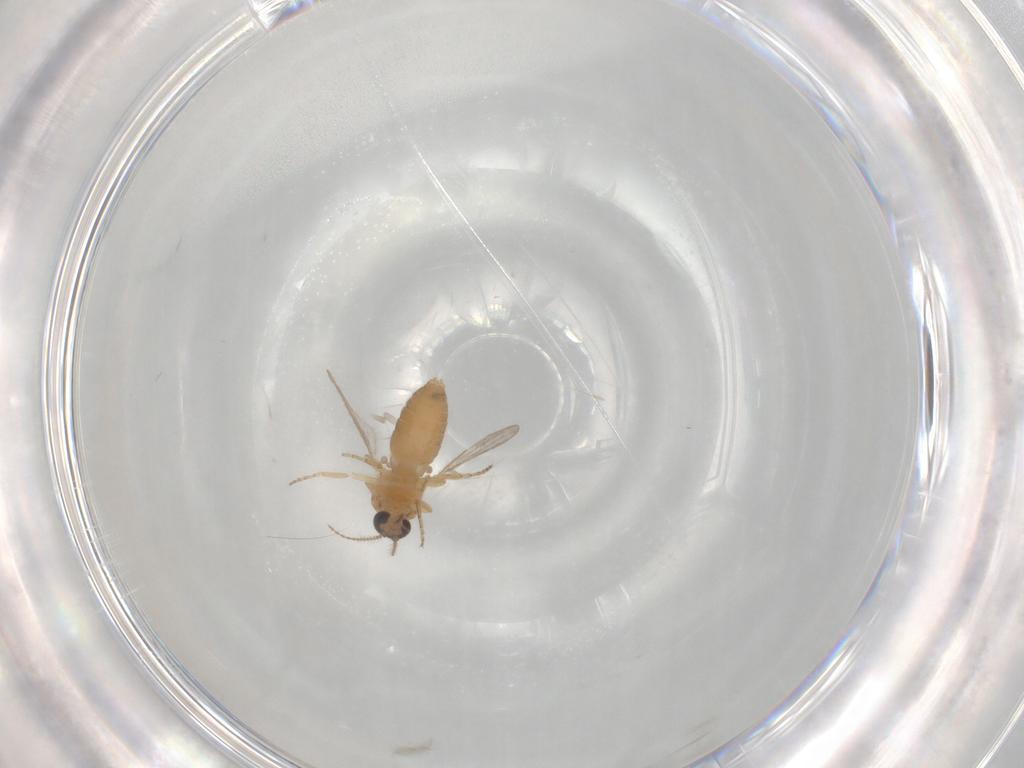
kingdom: Animalia
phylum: Arthropoda
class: Insecta
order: Diptera
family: Ceratopogonidae
